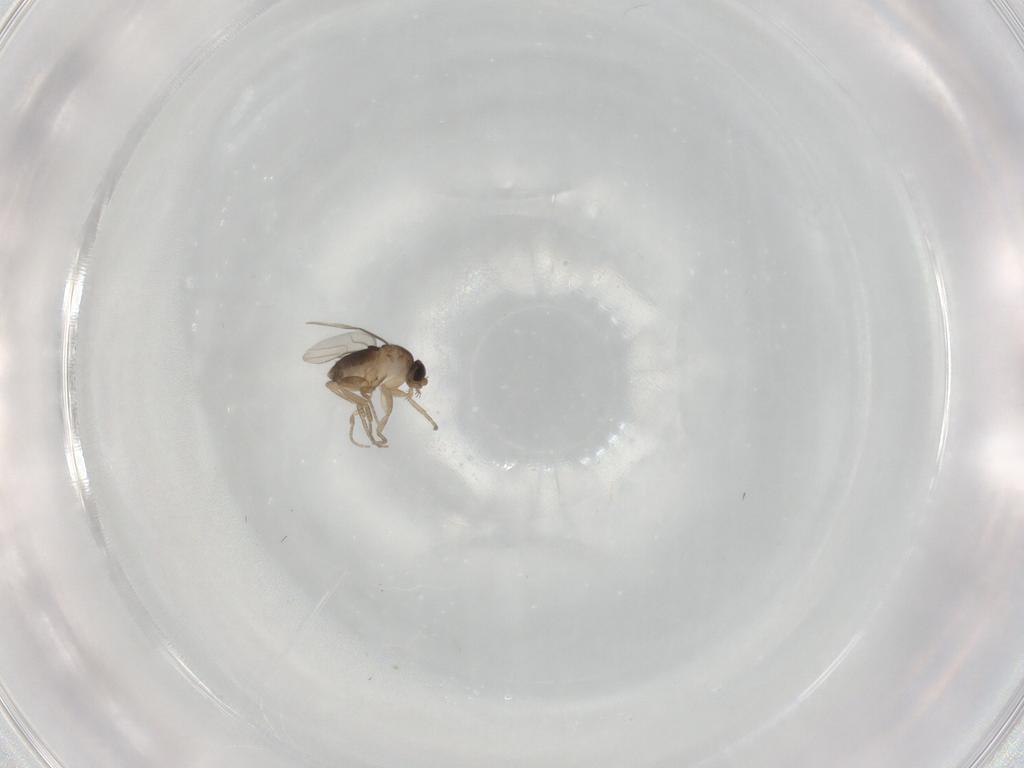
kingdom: Animalia
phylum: Arthropoda
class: Insecta
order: Diptera
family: Phoridae
